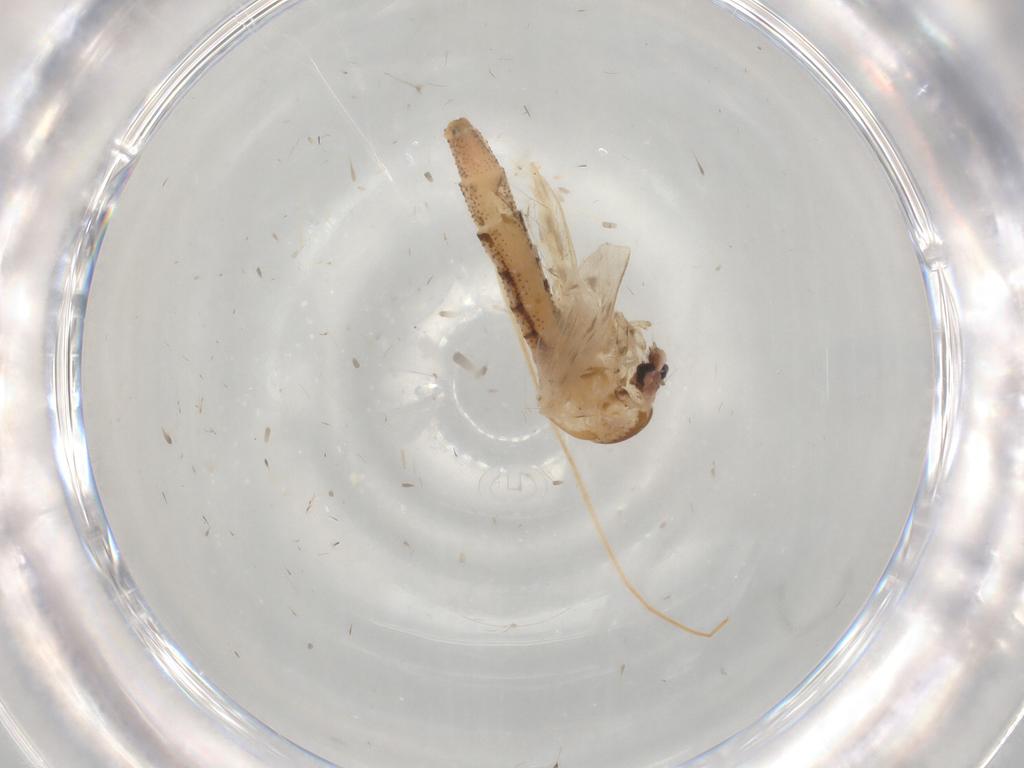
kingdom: Animalia
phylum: Arthropoda
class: Insecta
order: Diptera
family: Chaoboridae
